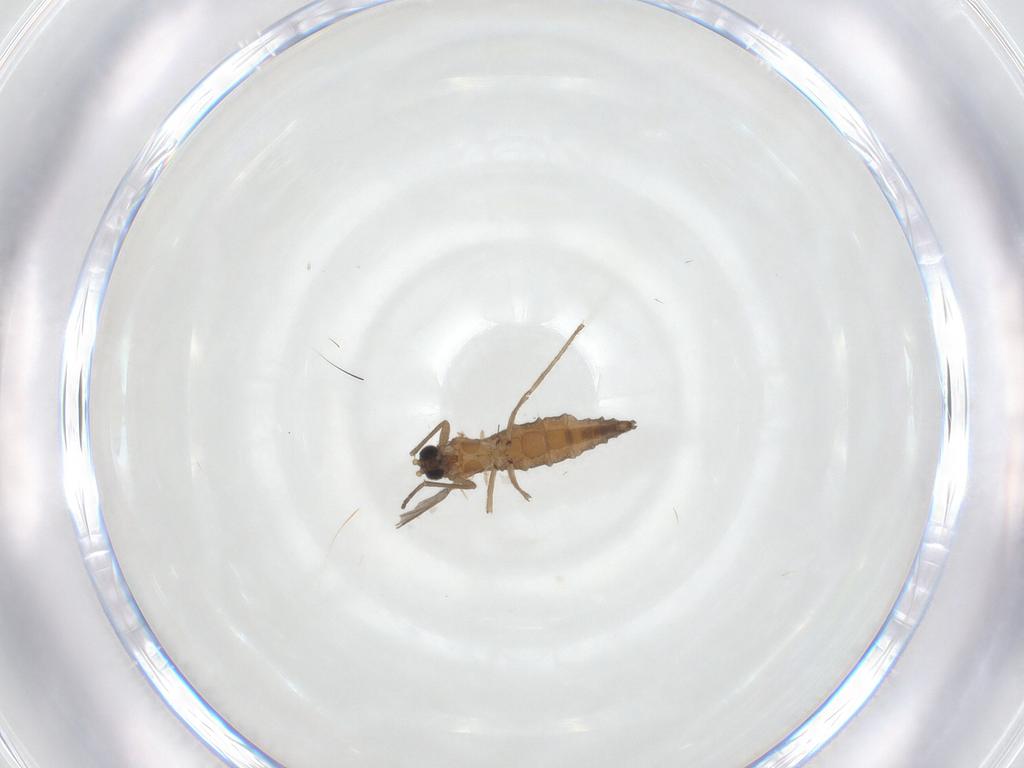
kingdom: Animalia
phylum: Arthropoda
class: Insecta
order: Diptera
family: Sciaridae
